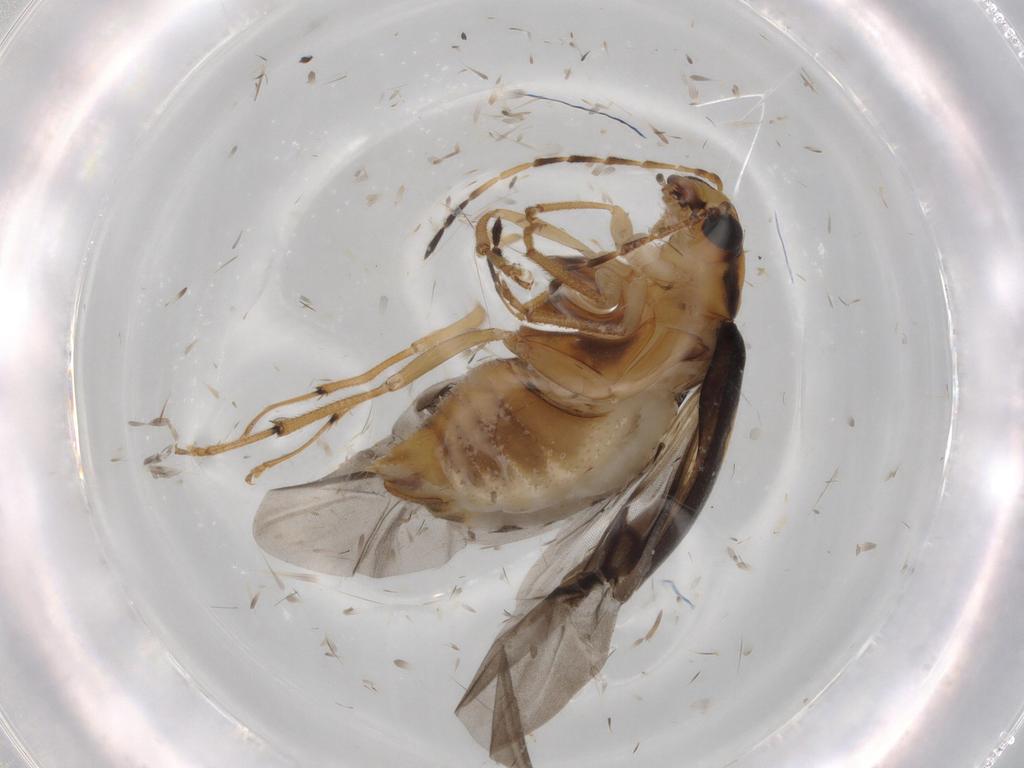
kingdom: Animalia
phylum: Arthropoda
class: Insecta
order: Coleoptera
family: Chrysomelidae
